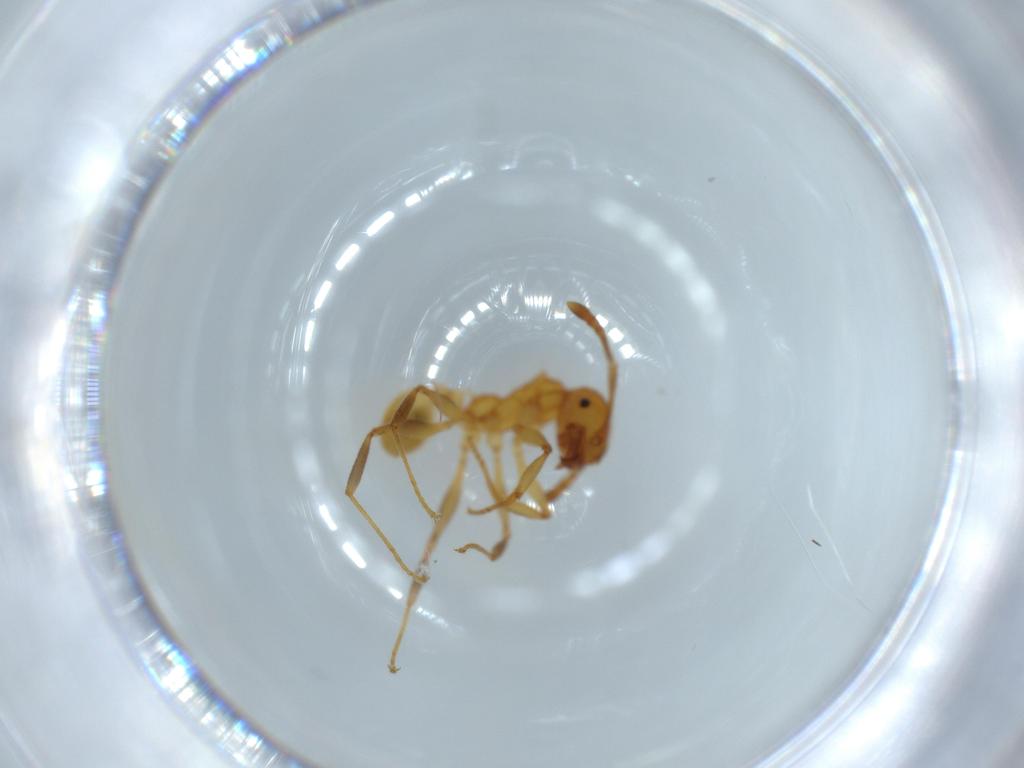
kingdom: Animalia
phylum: Arthropoda
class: Insecta
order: Hymenoptera
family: Formicidae
